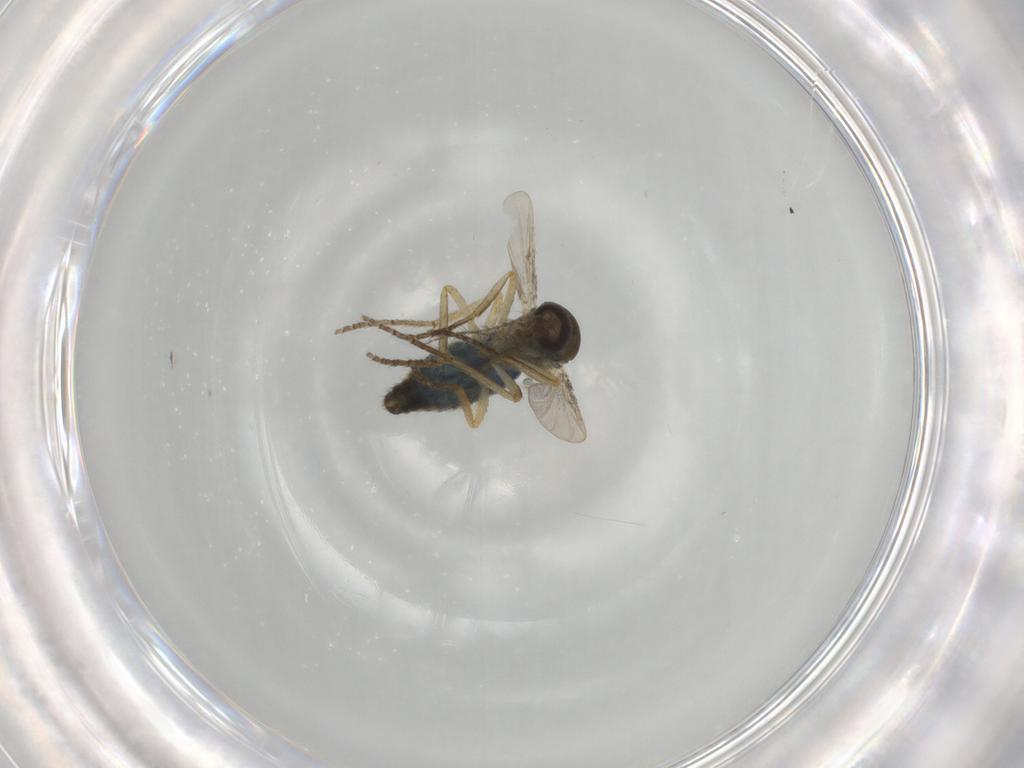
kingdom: Animalia
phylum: Arthropoda
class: Insecta
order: Diptera
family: Ceratopogonidae
